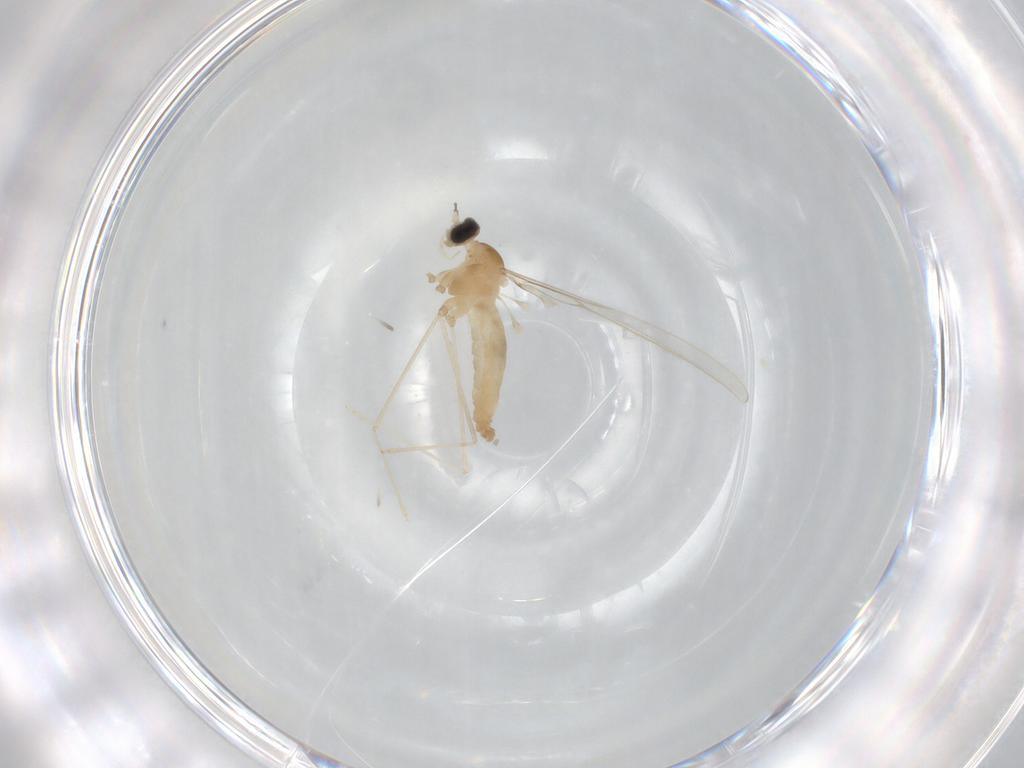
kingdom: Animalia
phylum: Arthropoda
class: Insecta
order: Diptera
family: Cecidomyiidae
